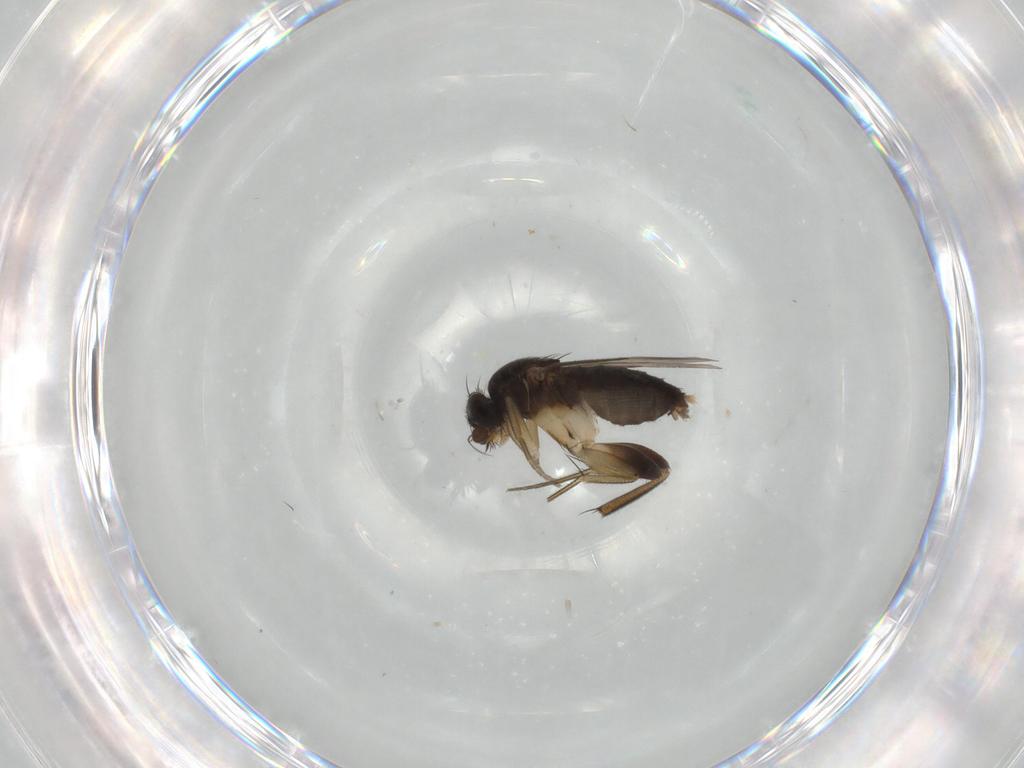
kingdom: Animalia
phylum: Arthropoda
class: Insecta
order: Diptera
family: Phoridae
